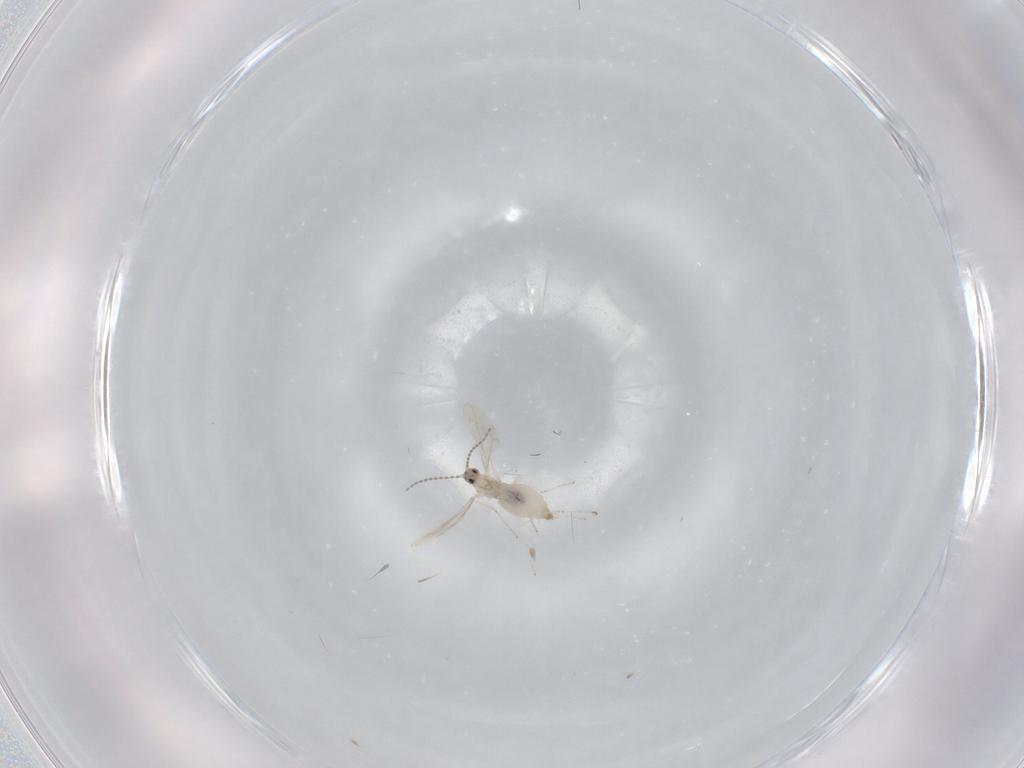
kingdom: Animalia
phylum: Arthropoda
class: Insecta
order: Diptera
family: Cecidomyiidae
